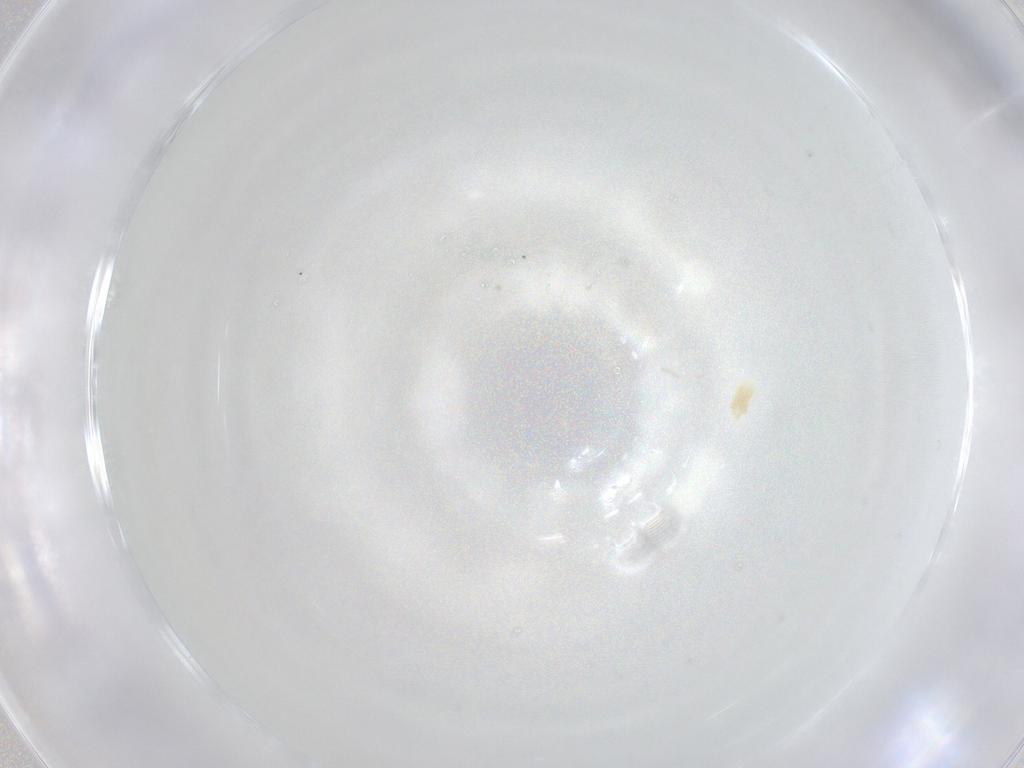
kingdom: Animalia
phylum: Arthropoda
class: Arachnida
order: Trombidiformes
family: Eupodidae
